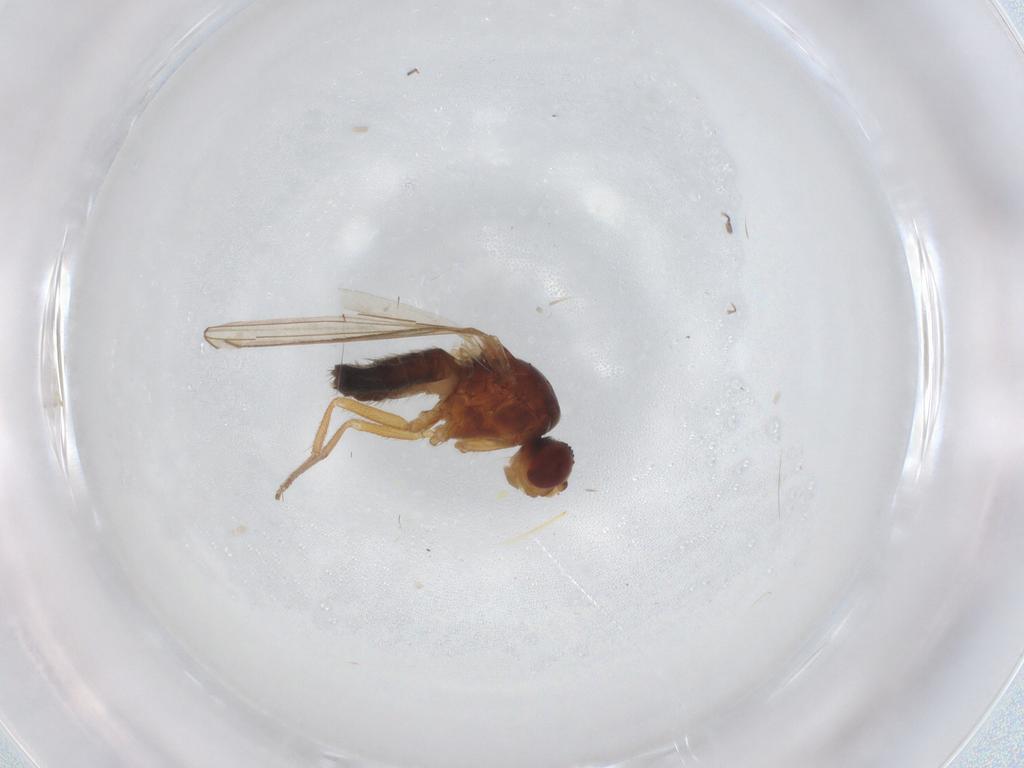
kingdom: Animalia
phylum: Arthropoda
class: Insecta
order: Diptera
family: Drosophilidae
